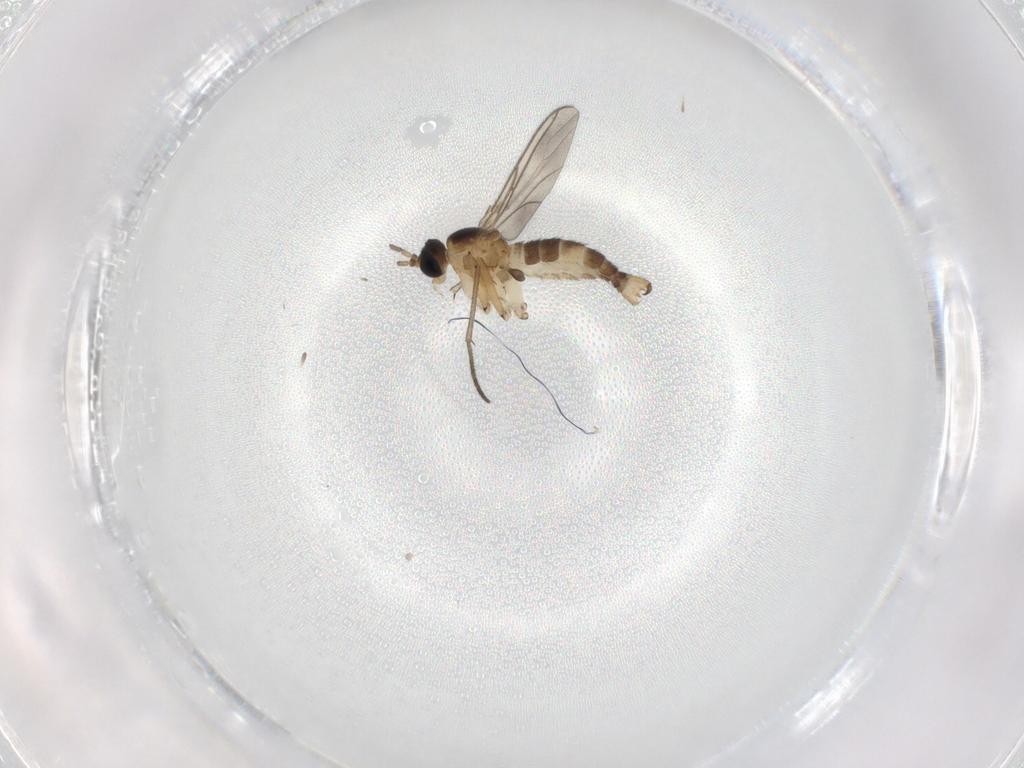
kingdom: Animalia
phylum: Arthropoda
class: Insecta
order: Diptera
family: Sciaridae
